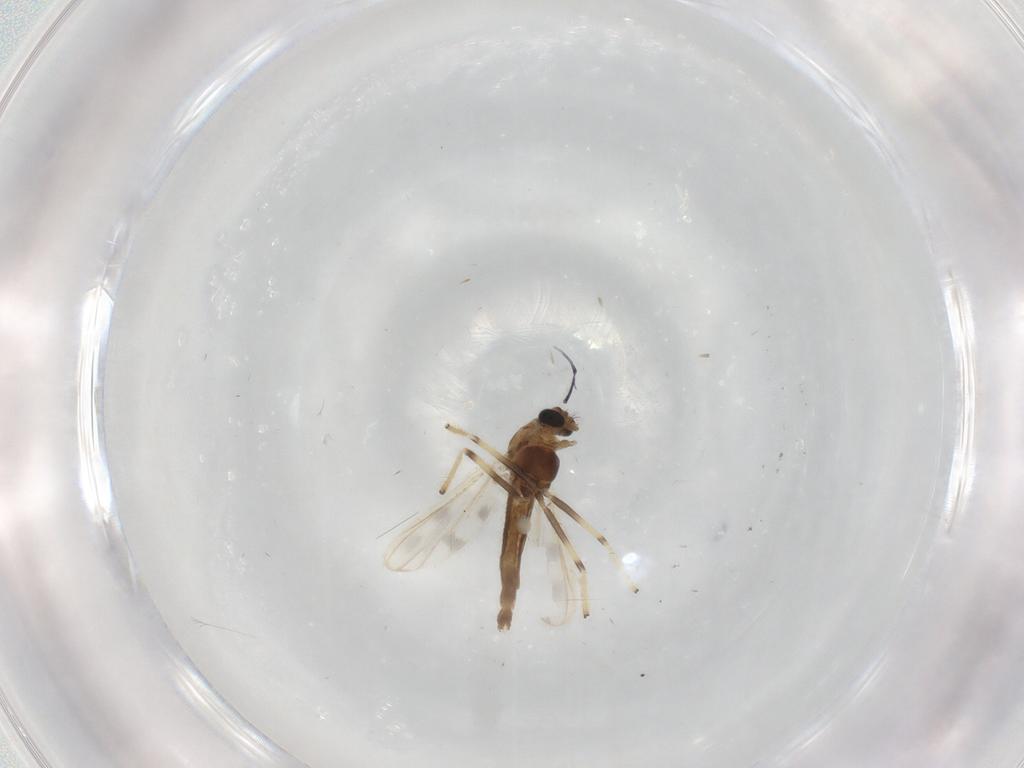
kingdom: Animalia
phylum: Arthropoda
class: Insecta
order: Diptera
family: Chironomidae
